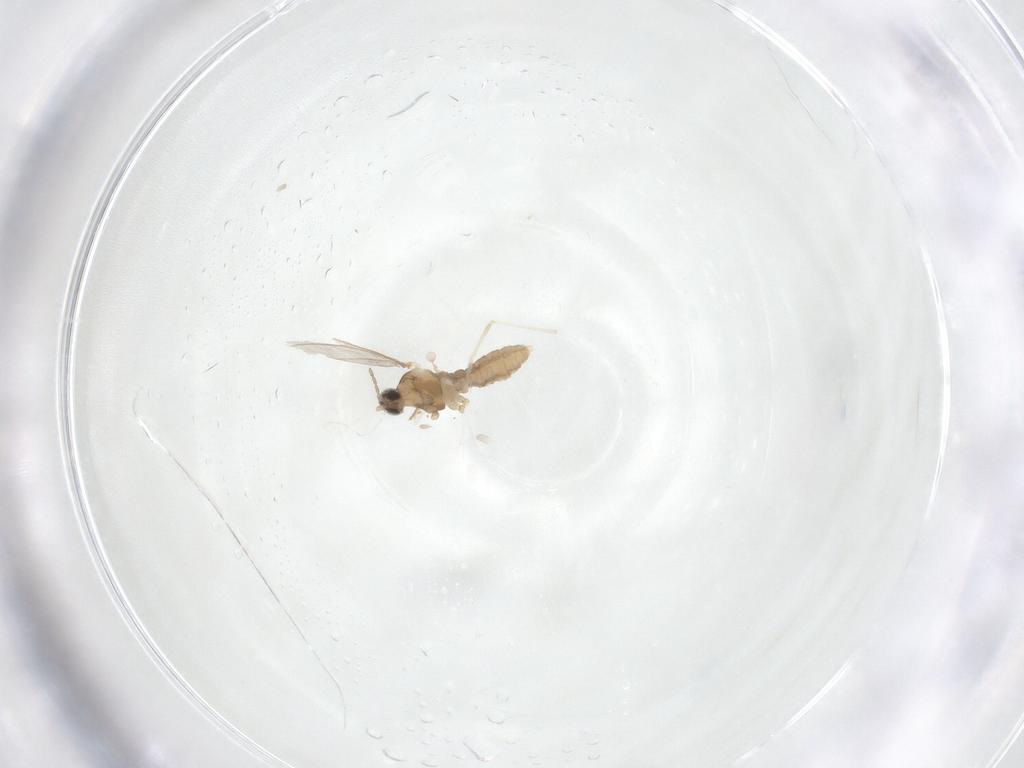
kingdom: Animalia
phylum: Arthropoda
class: Insecta
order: Diptera
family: Cecidomyiidae
